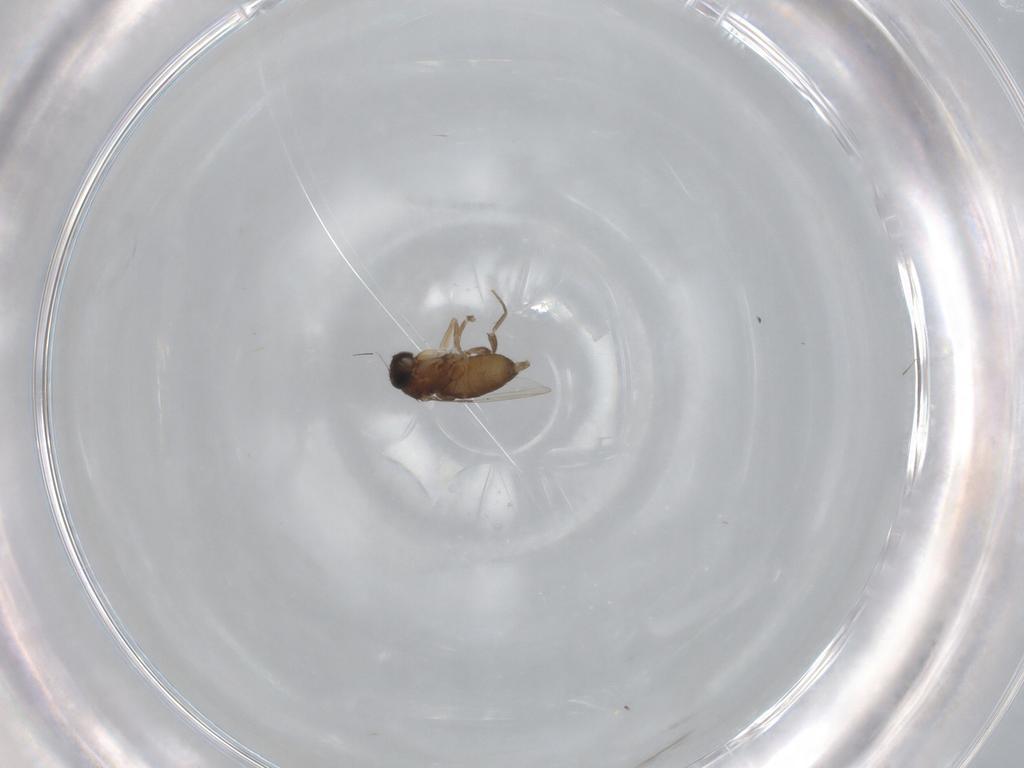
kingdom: Animalia
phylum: Arthropoda
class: Insecta
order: Diptera
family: Phoridae
